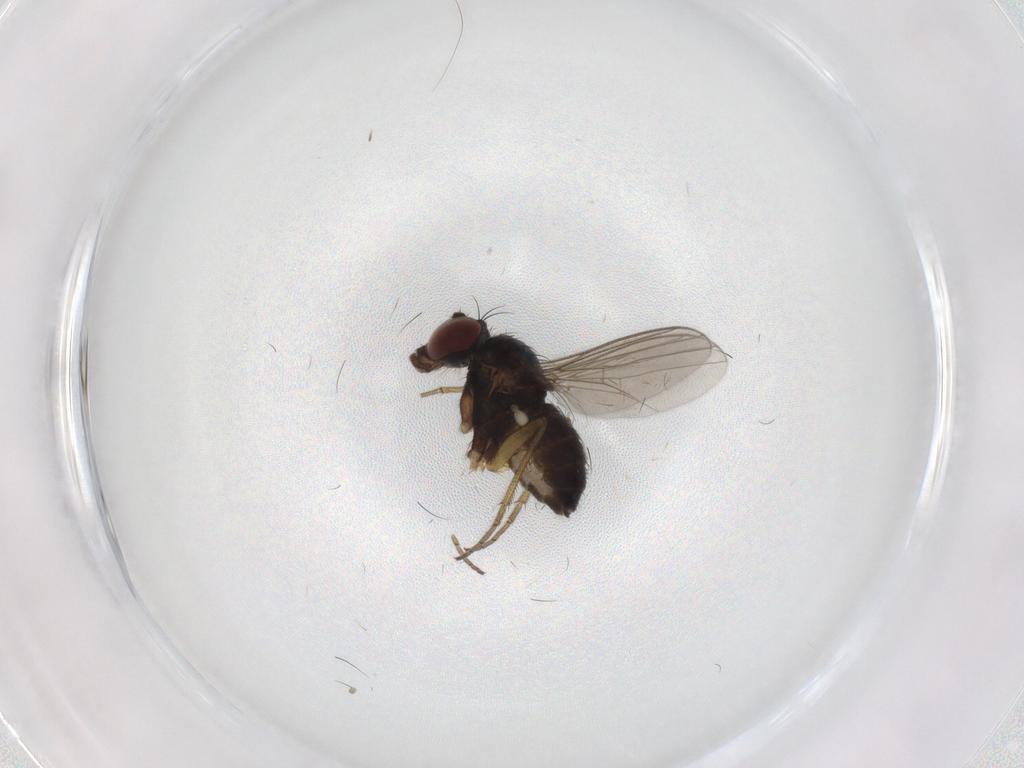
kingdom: Animalia
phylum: Arthropoda
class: Insecta
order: Diptera
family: Dolichopodidae
